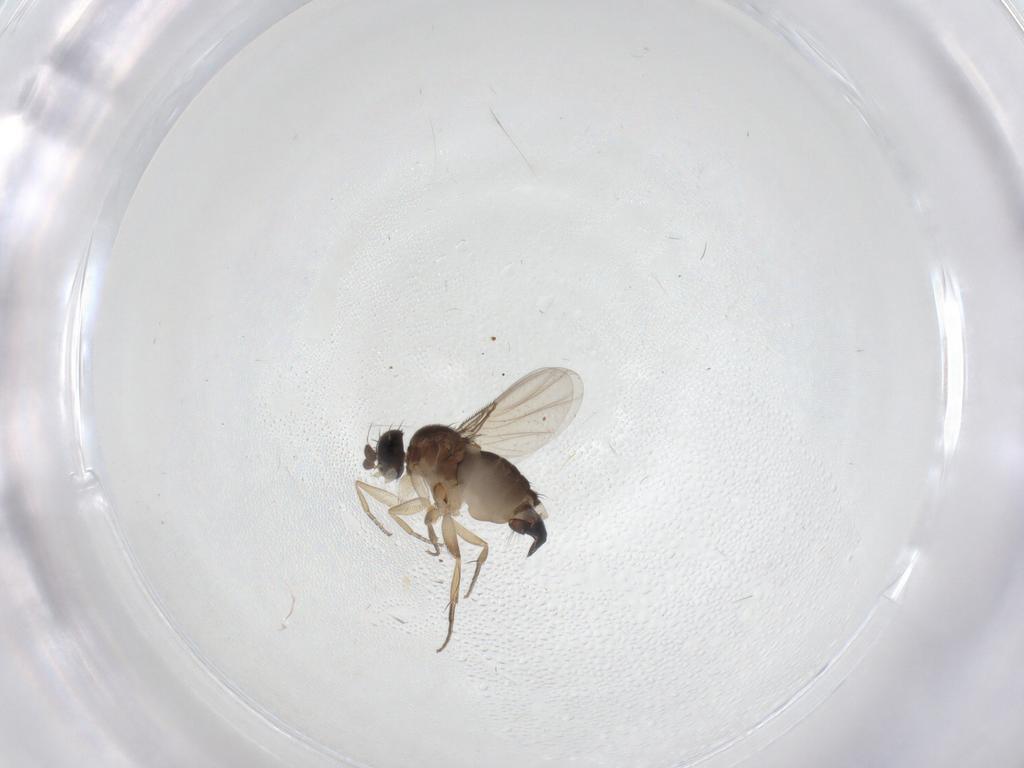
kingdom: Animalia
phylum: Arthropoda
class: Insecta
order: Diptera
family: Phoridae
